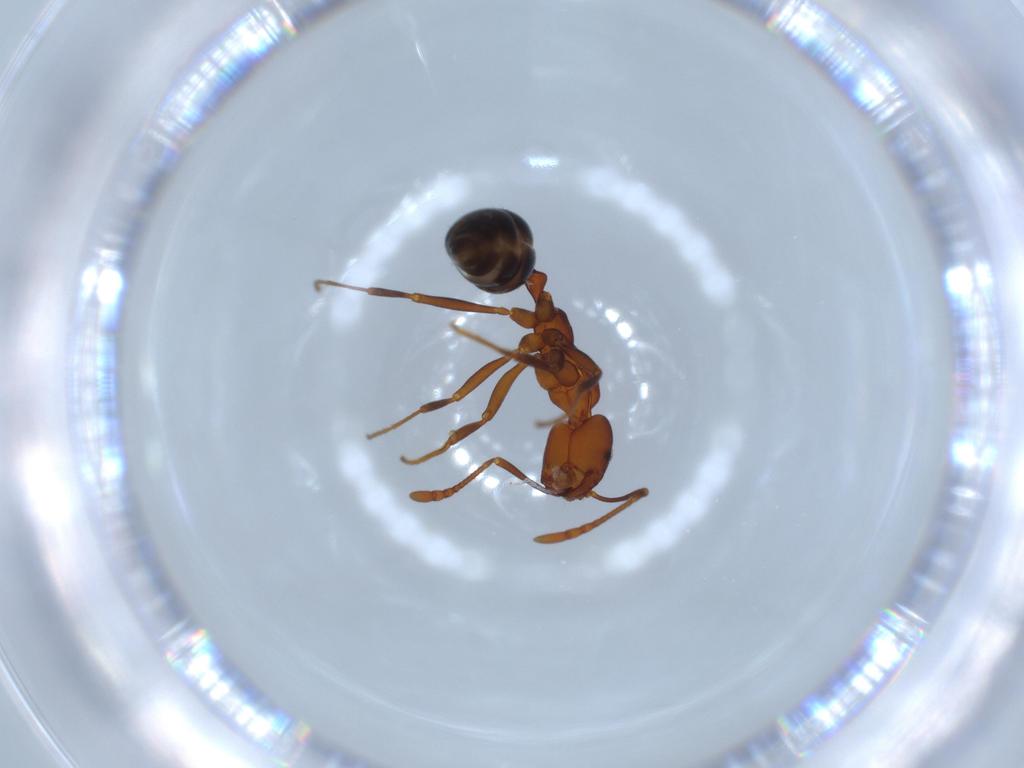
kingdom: Animalia
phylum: Arthropoda
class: Insecta
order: Hymenoptera
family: Formicidae
